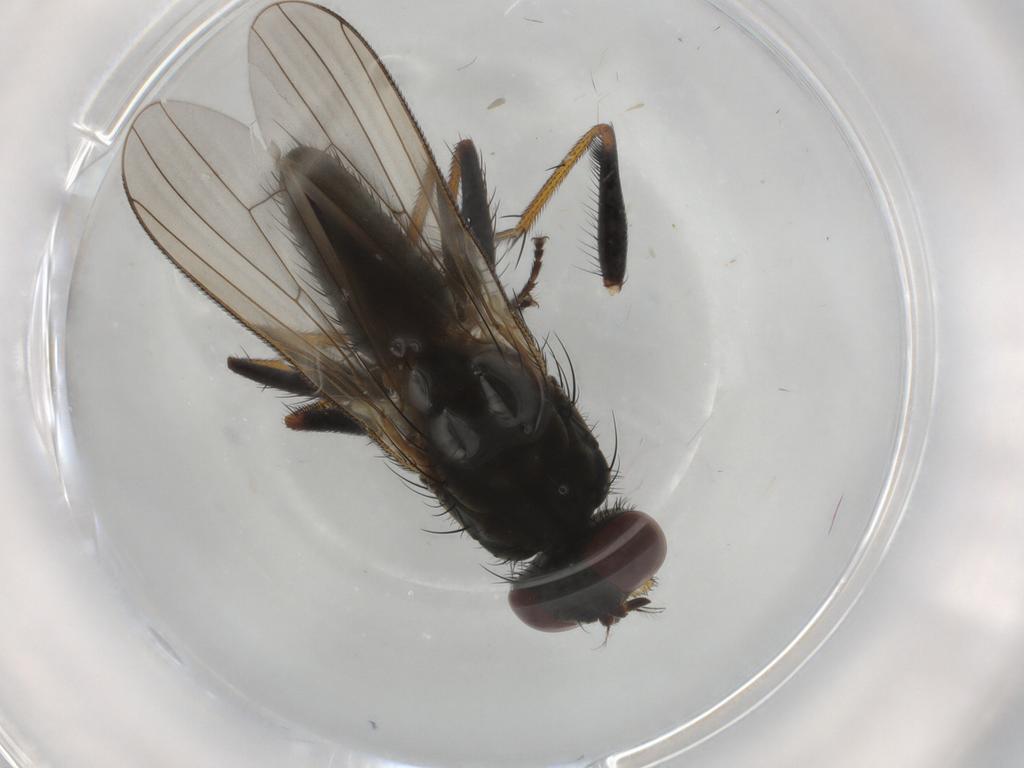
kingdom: Animalia
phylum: Arthropoda
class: Insecta
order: Diptera
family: Muscidae
